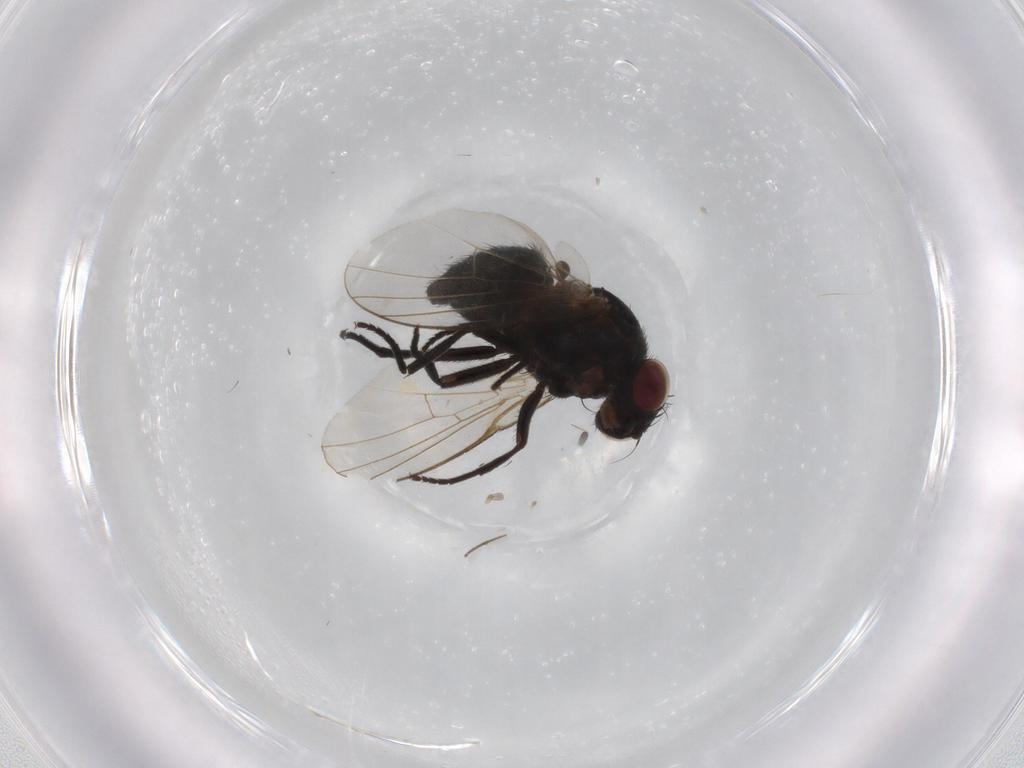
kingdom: Animalia
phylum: Arthropoda
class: Insecta
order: Diptera
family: Agromyzidae
